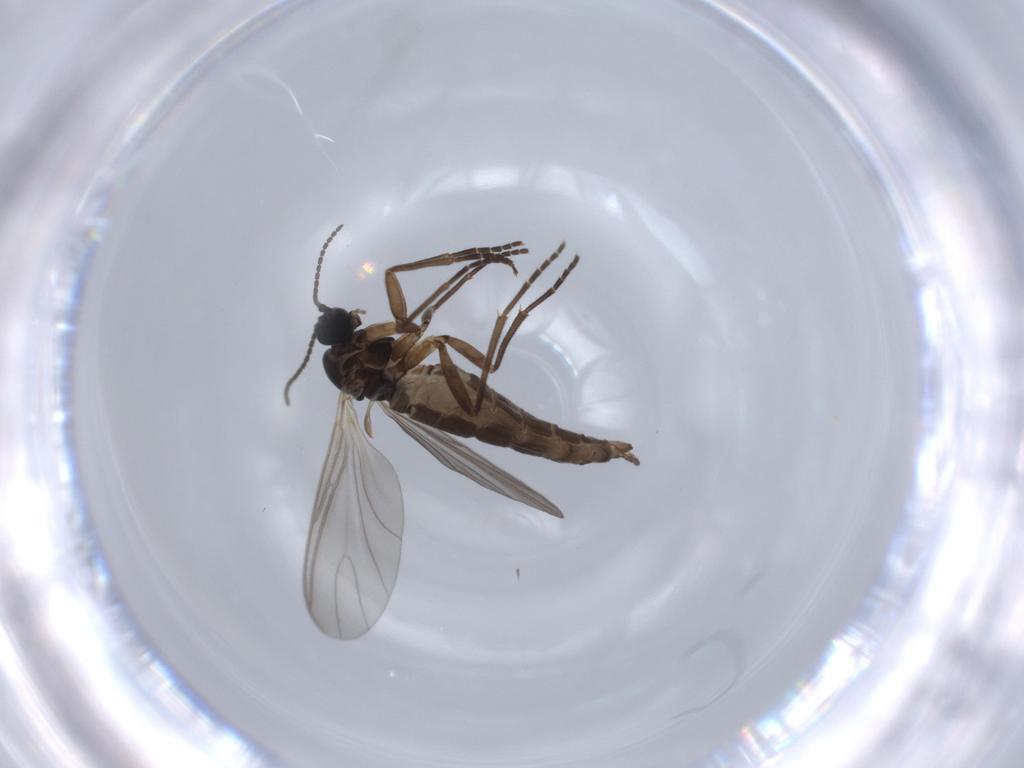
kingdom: Animalia
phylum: Arthropoda
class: Insecta
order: Diptera
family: Sciaridae
